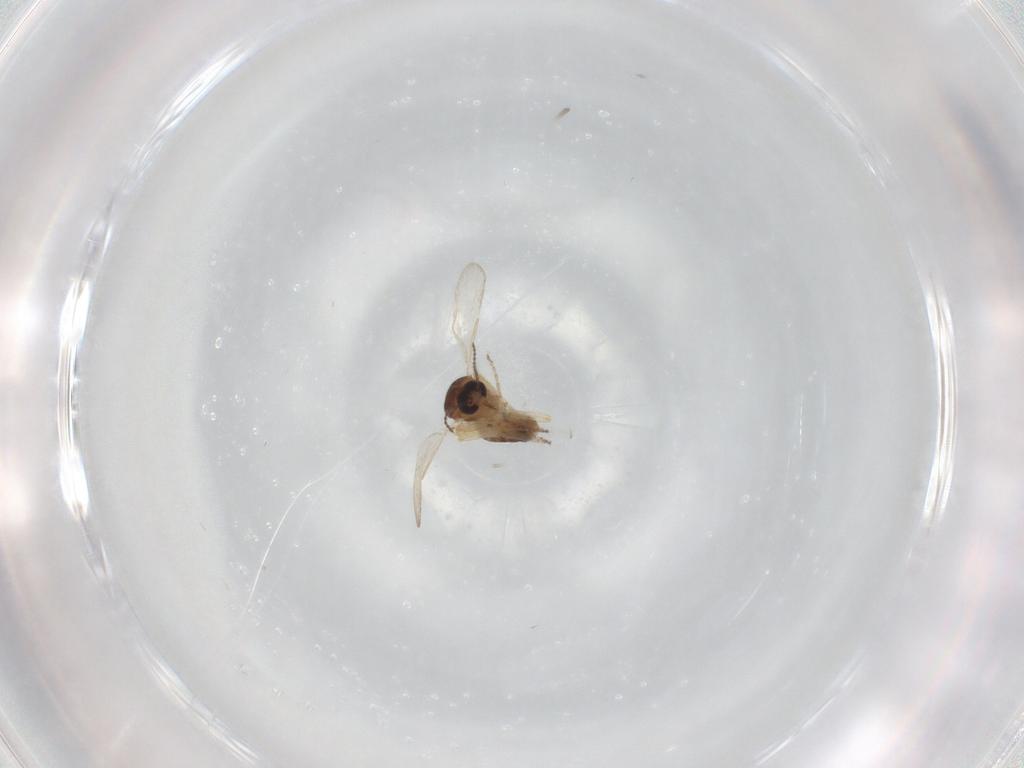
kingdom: Animalia
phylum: Arthropoda
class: Insecta
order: Diptera
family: Ceratopogonidae
